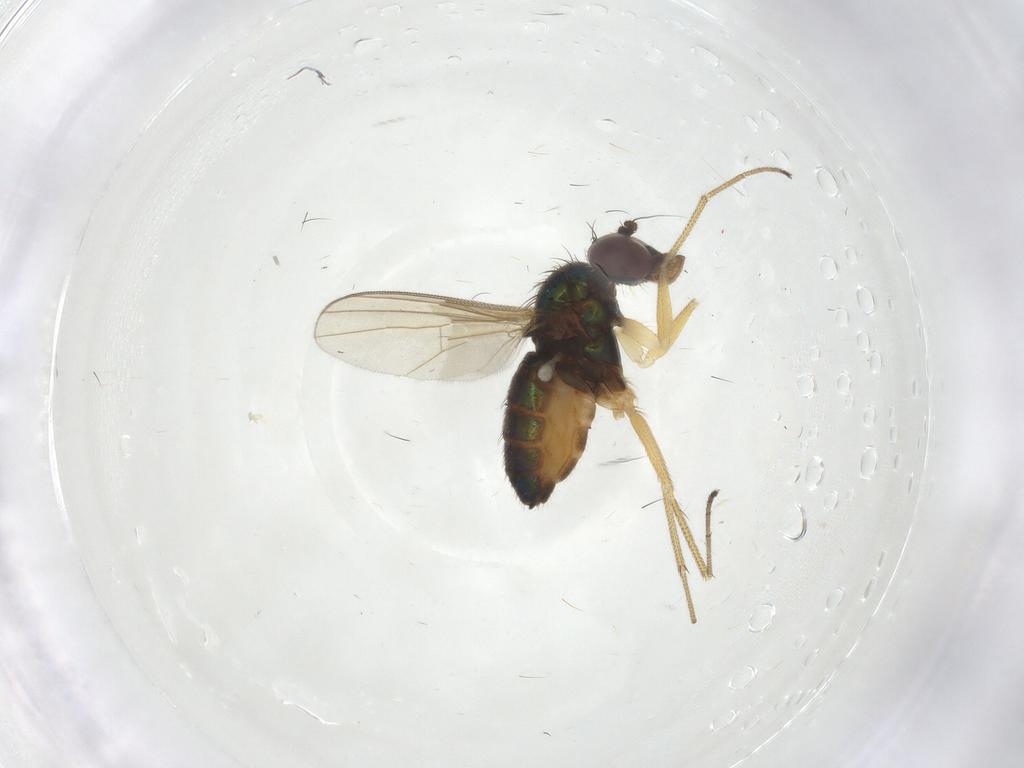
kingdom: Animalia
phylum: Arthropoda
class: Insecta
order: Diptera
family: Dolichopodidae
